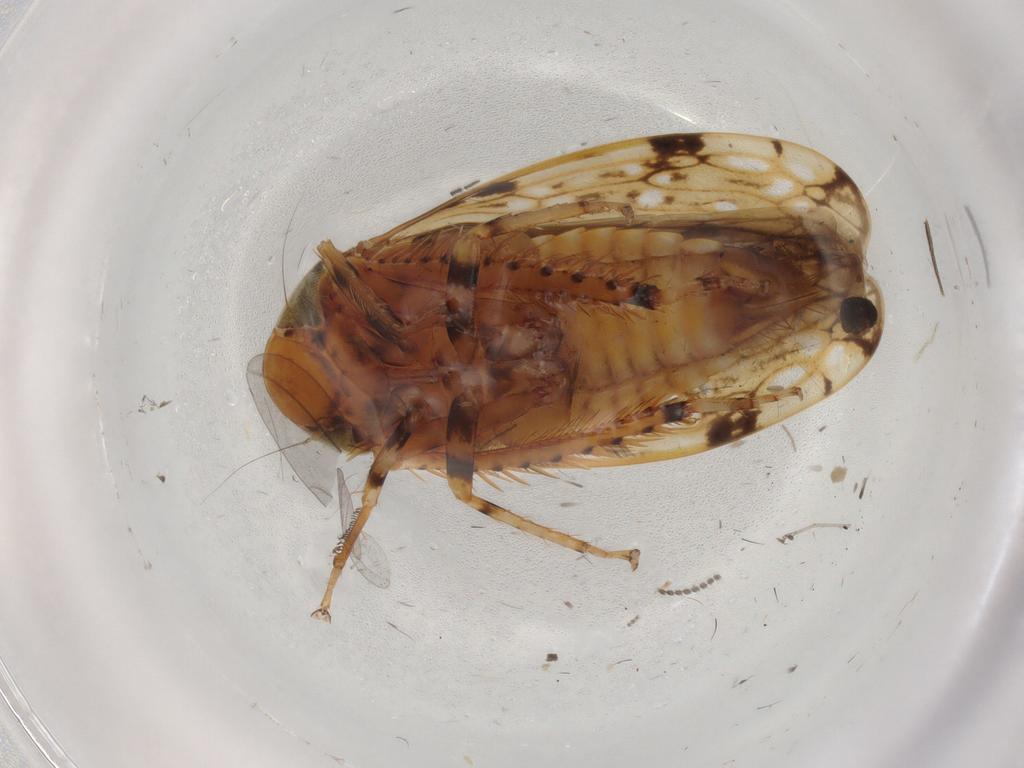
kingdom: Animalia
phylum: Arthropoda
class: Insecta
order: Hemiptera
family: Cicadellidae
